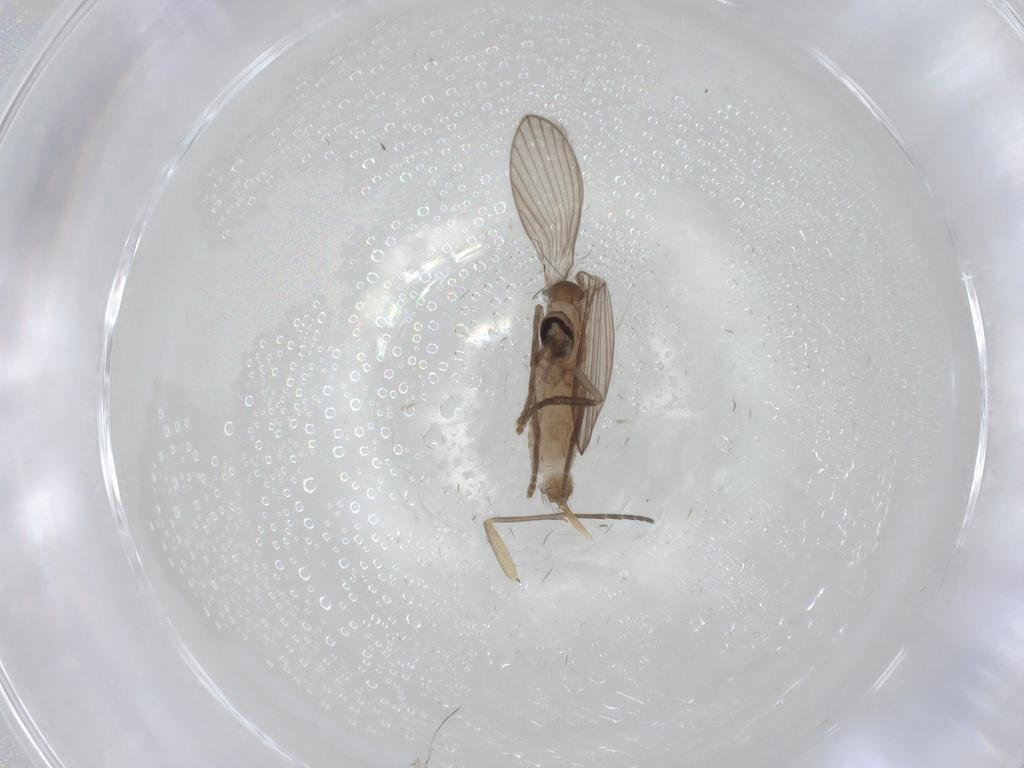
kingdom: Animalia
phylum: Arthropoda
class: Insecta
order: Diptera
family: Psychodidae
